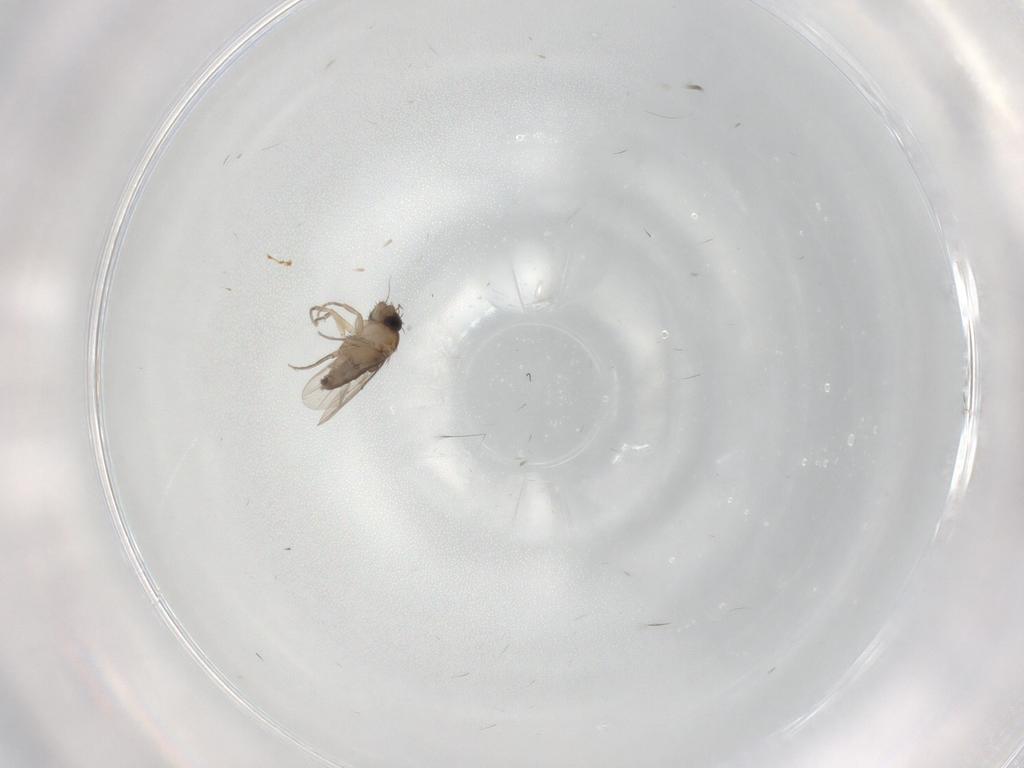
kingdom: Animalia
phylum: Arthropoda
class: Insecta
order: Diptera
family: Phoridae
